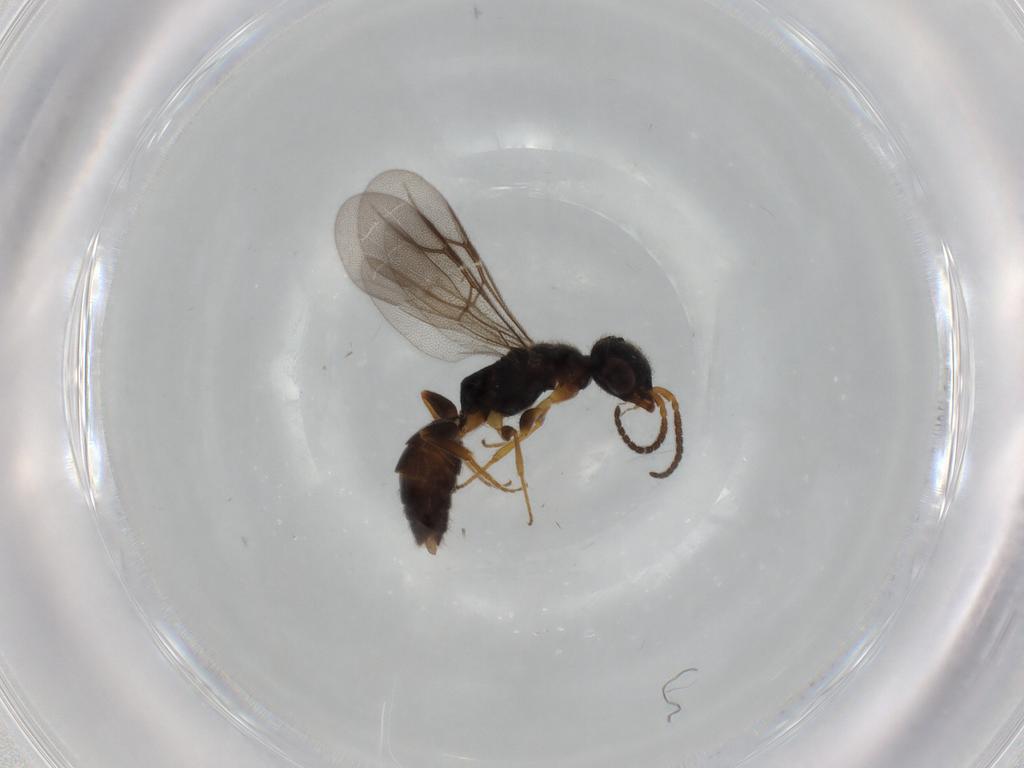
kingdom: Animalia
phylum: Arthropoda
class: Insecta
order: Hymenoptera
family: Bethylidae
